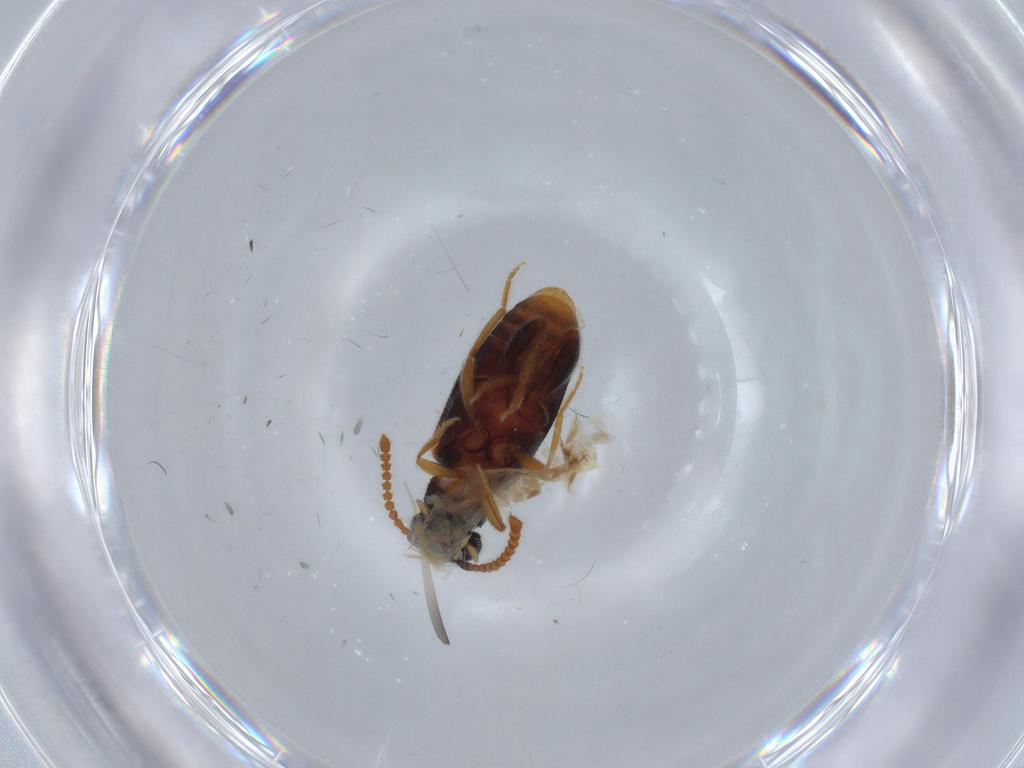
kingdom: Animalia
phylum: Arthropoda
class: Insecta
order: Coleoptera
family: Aderidae
